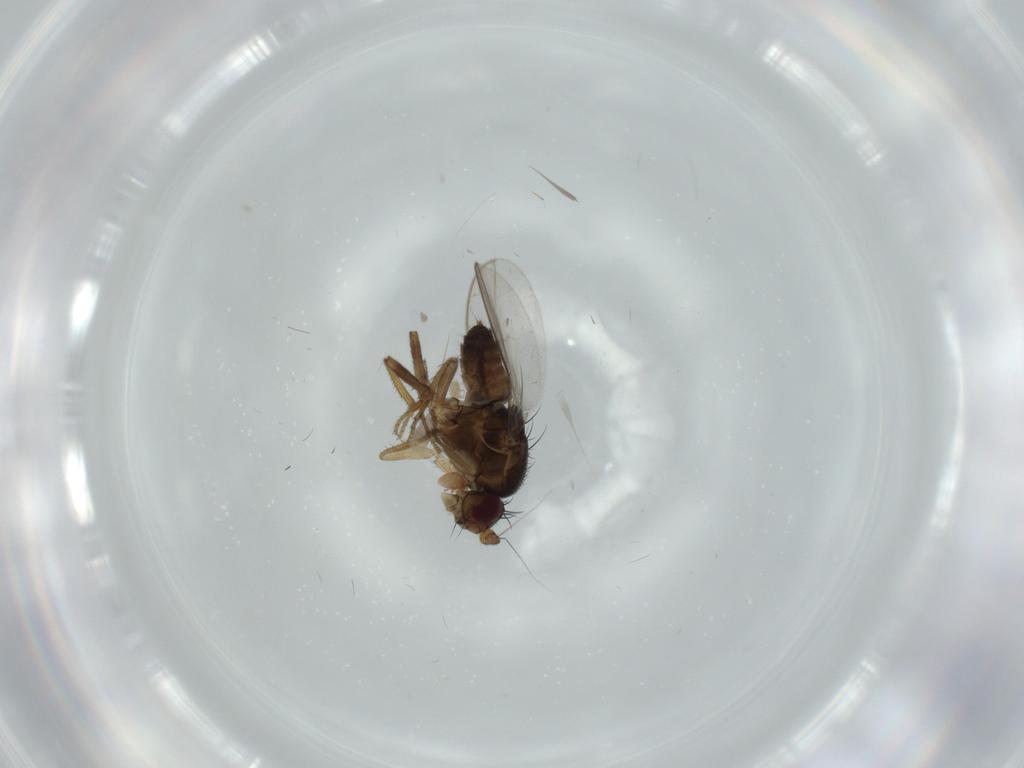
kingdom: Animalia
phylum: Arthropoda
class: Insecta
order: Diptera
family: Sphaeroceridae
